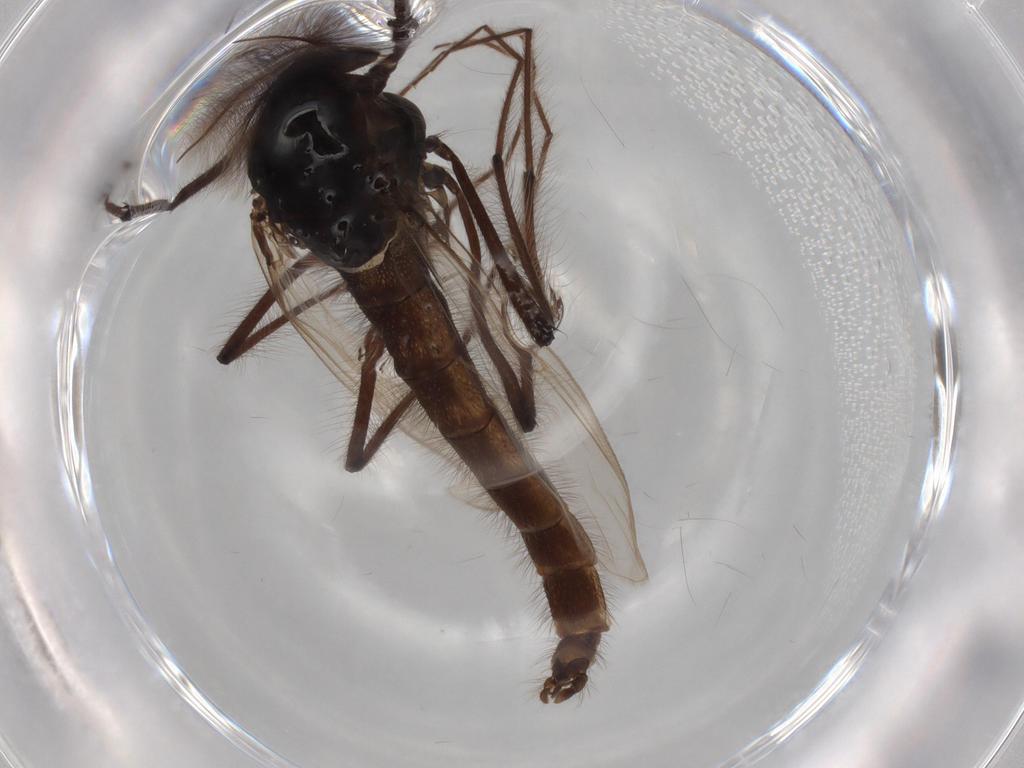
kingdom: Animalia
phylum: Arthropoda
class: Insecta
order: Diptera
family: Chironomidae
